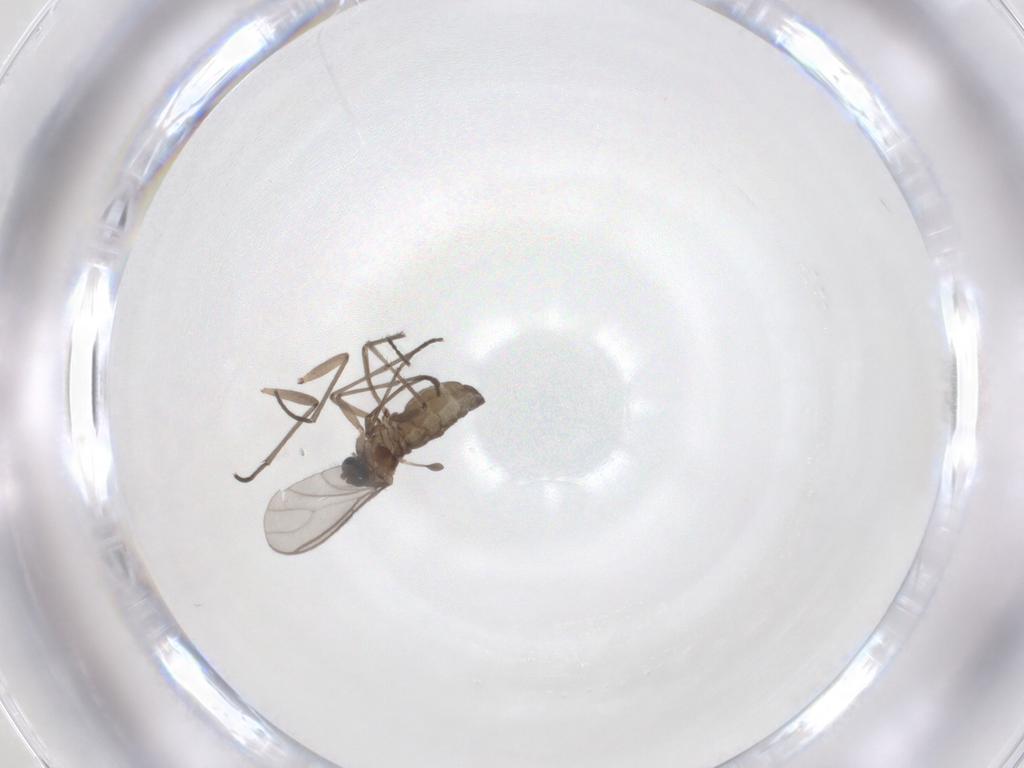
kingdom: Animalia
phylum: Arthropoda
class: Insecta
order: Diptera
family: Sciaridae
